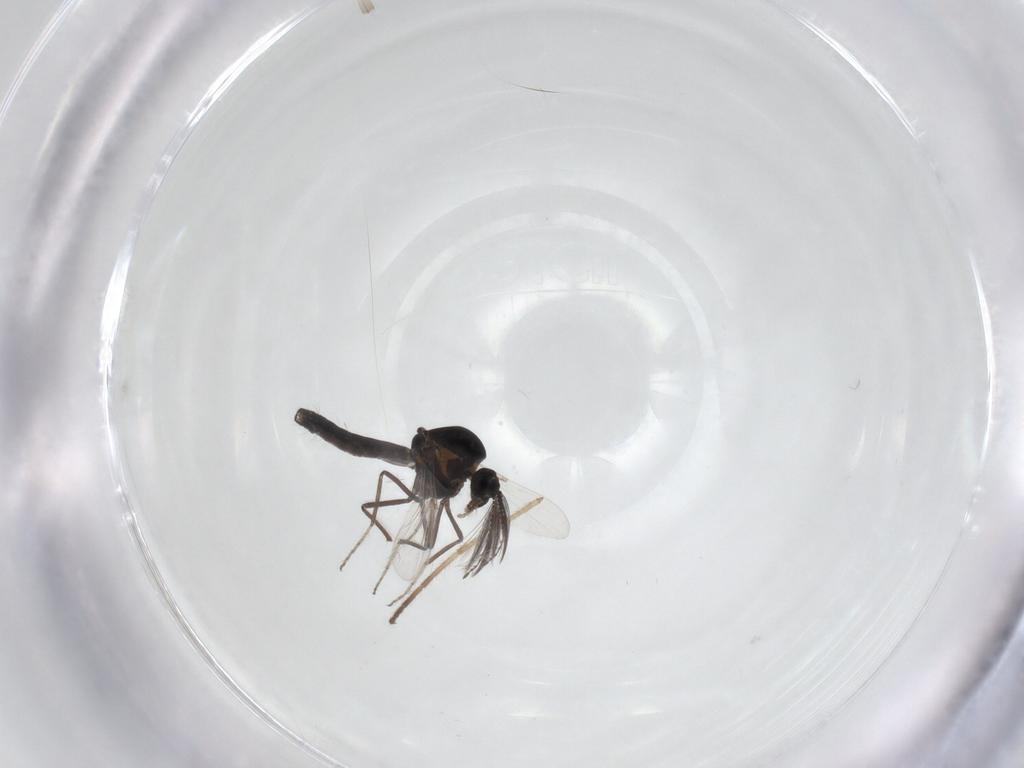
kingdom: Animalia
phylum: Arthropoda
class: Insecta
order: Diptera
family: Ceratopogonidae
